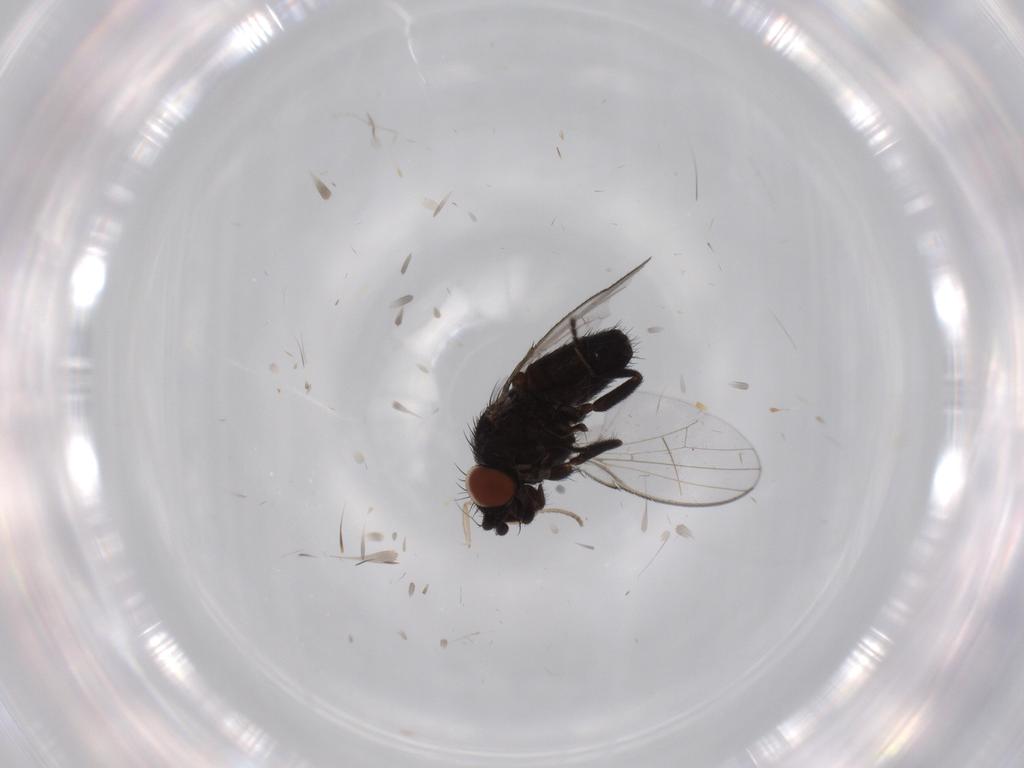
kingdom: Animalia
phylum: Arthropoda
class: Insecta
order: Diptera
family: Milichiidae
